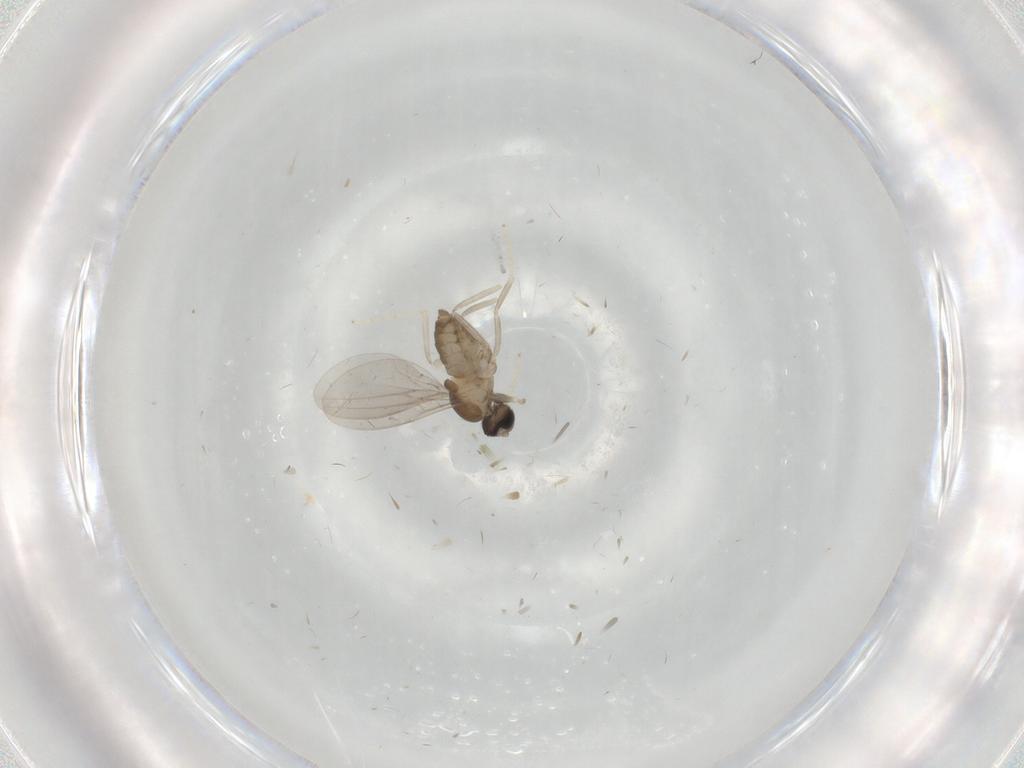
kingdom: Animalia
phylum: Arthropoda
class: Insecta
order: Diptera
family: Cecidomyiidae
